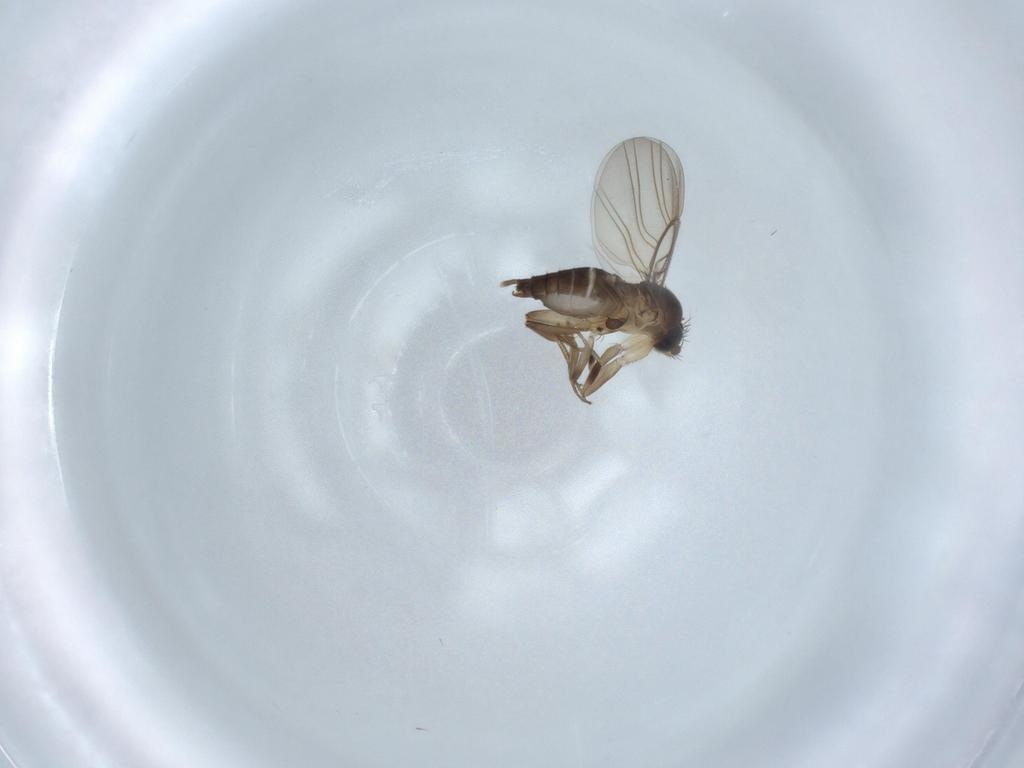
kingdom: Animalia
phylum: Arthropoda
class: Insecta
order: Diptera
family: Phoridae
